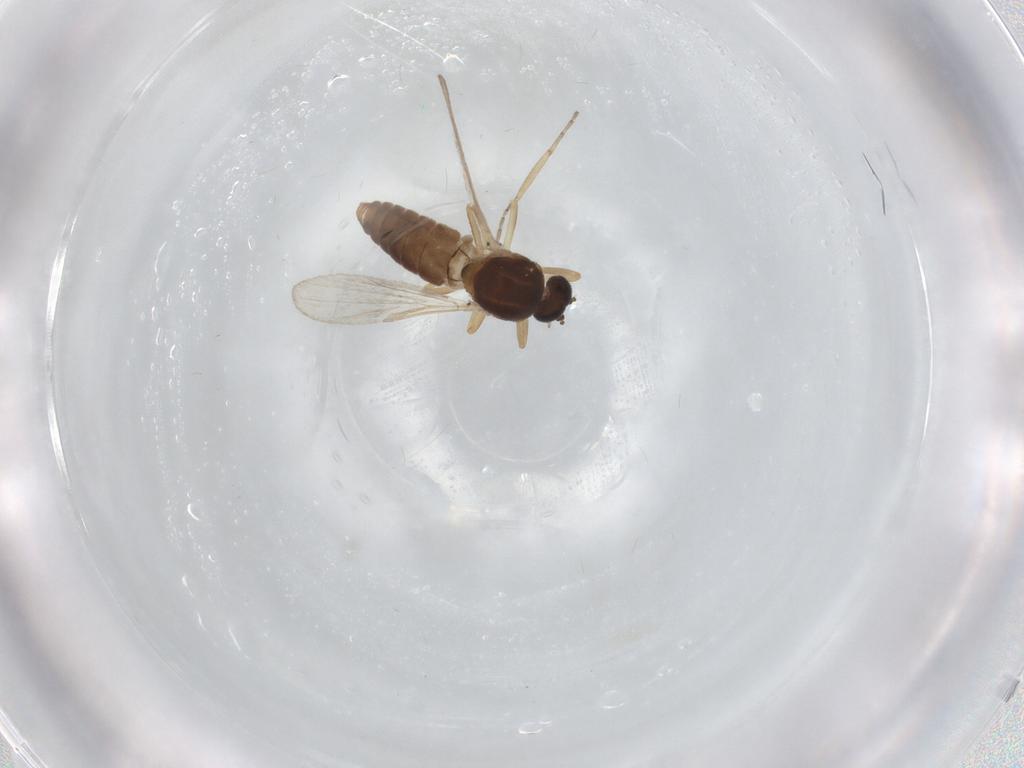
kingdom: Animalia
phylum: Arthropoda
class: Insecta
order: Diptera
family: Ceratopogonidae
